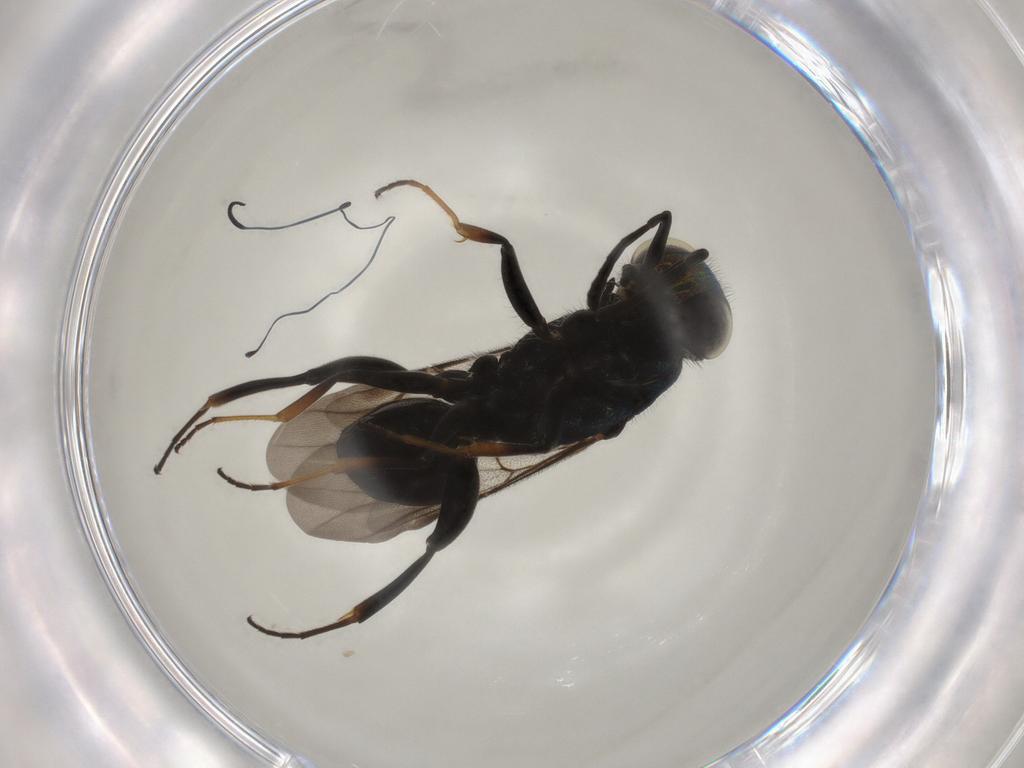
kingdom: Animalia
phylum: Arthropoda
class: Insecta
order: Hymenoptera
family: Chrysididae
